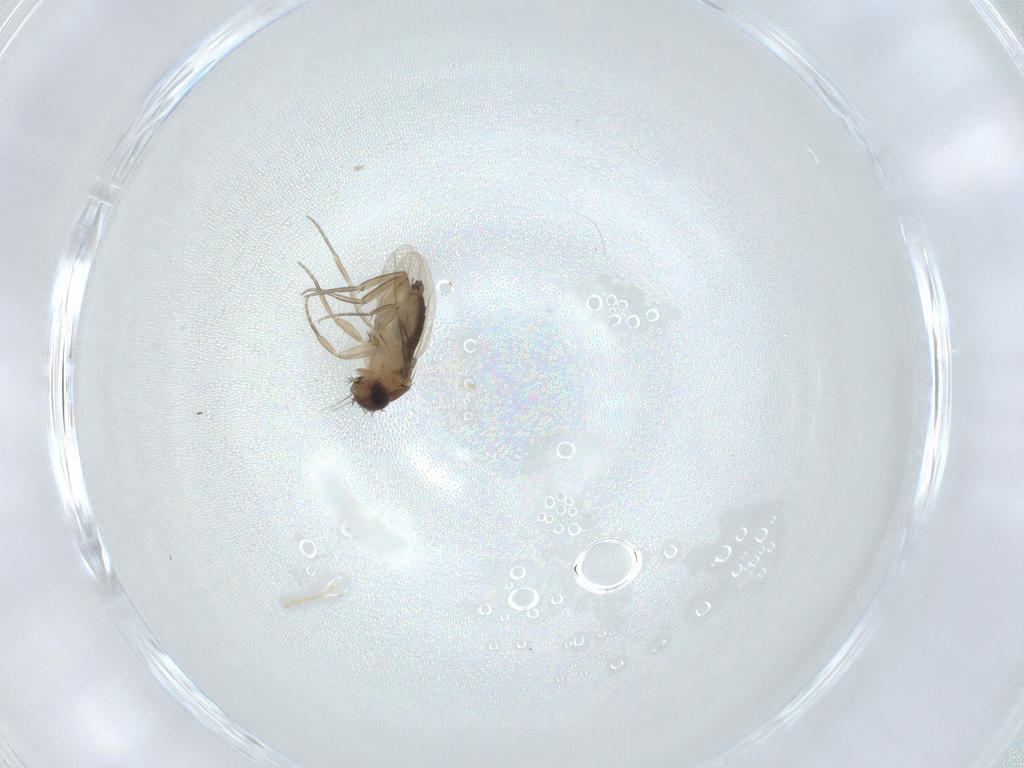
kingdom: Animalia
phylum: Arthropoda
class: Insecta
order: Diptera
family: Phoridae
